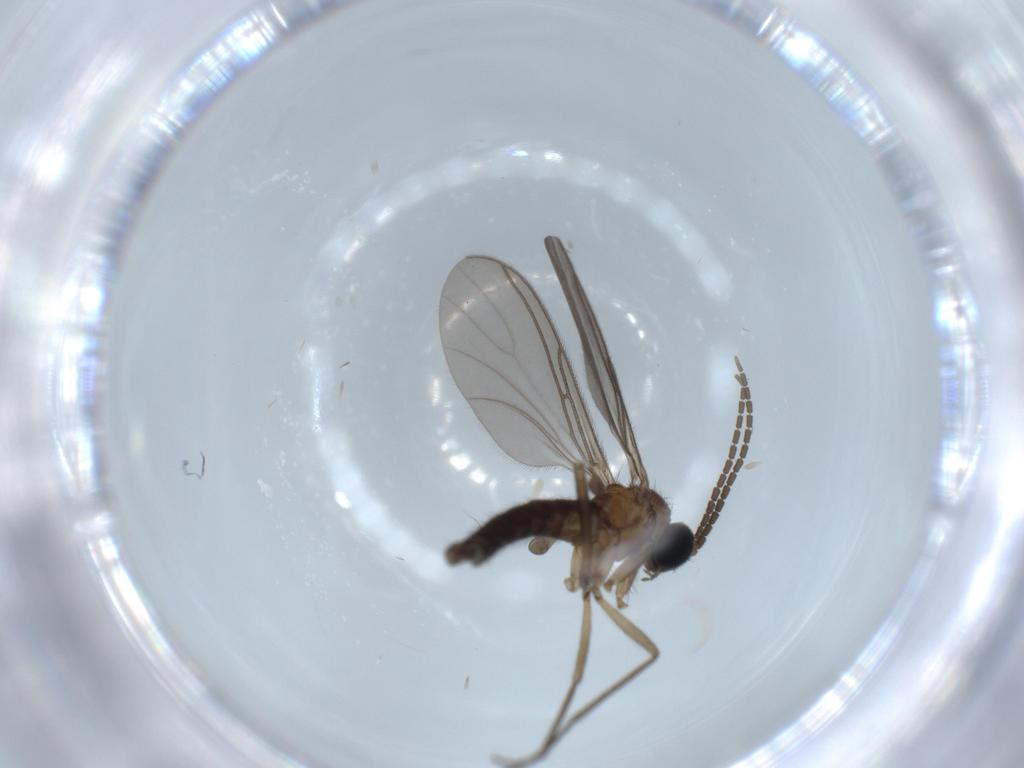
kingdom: Animalia
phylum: Arthropoda
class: Insecta
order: Diptera
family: Sciaridae
